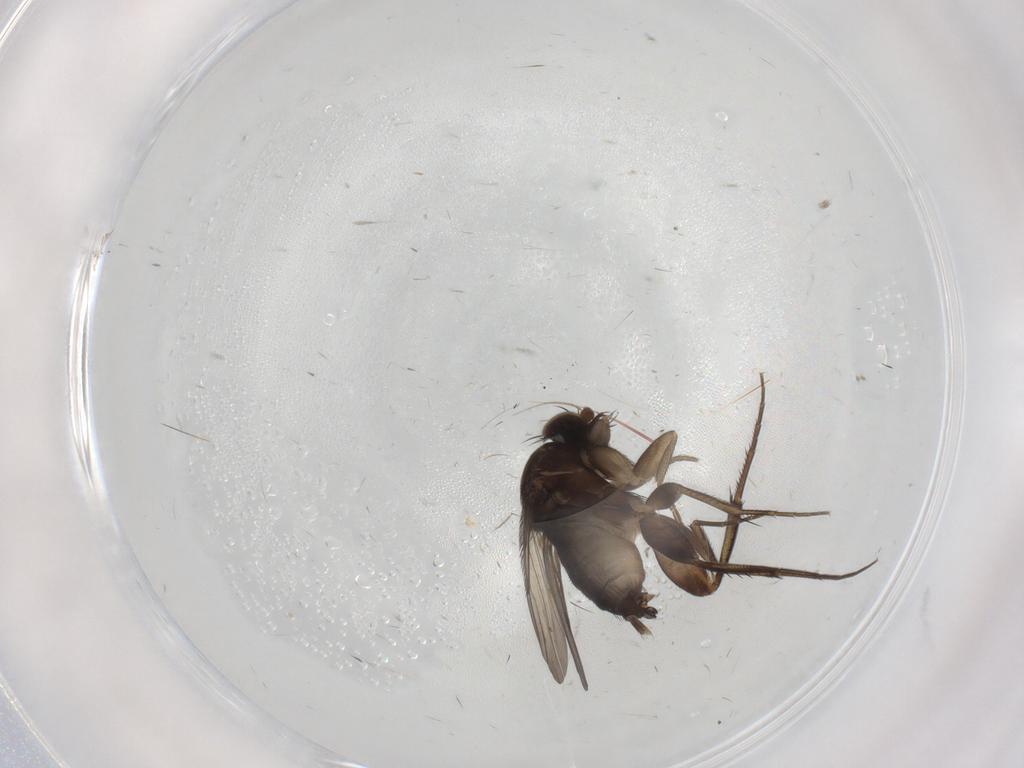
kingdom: Animalia
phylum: Arthropoda
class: Insecta
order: Diptera
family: Phoridae
